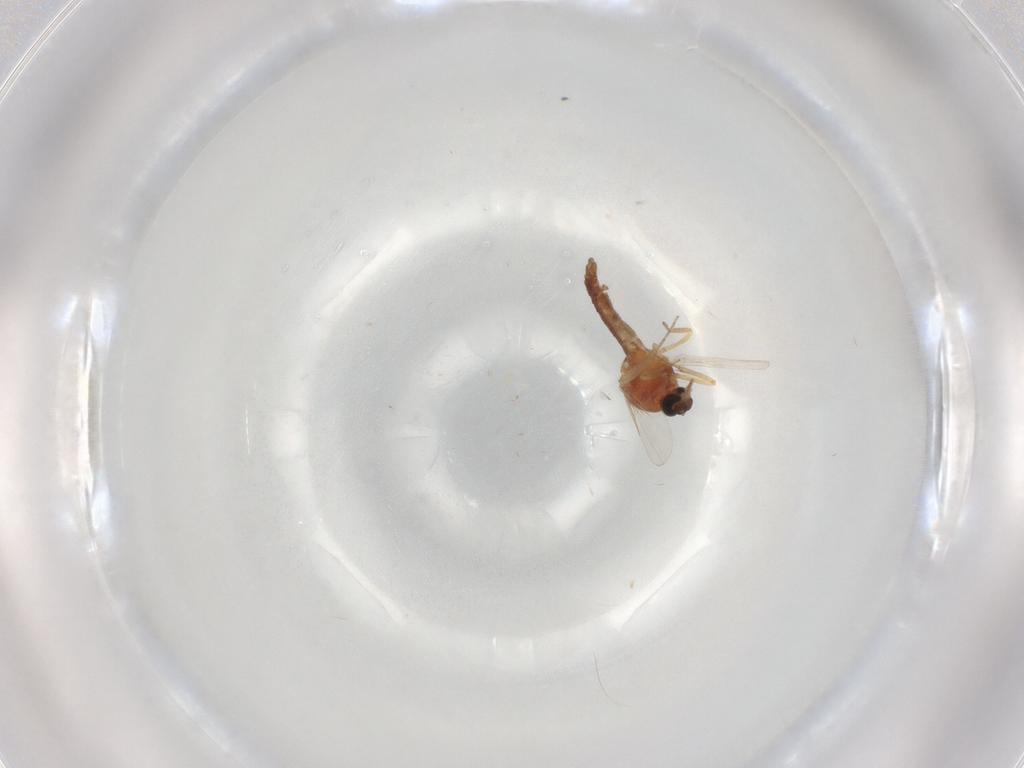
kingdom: Animalia
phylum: Arthropoda
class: Insecta
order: Diptera
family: Ceratopogonidae
